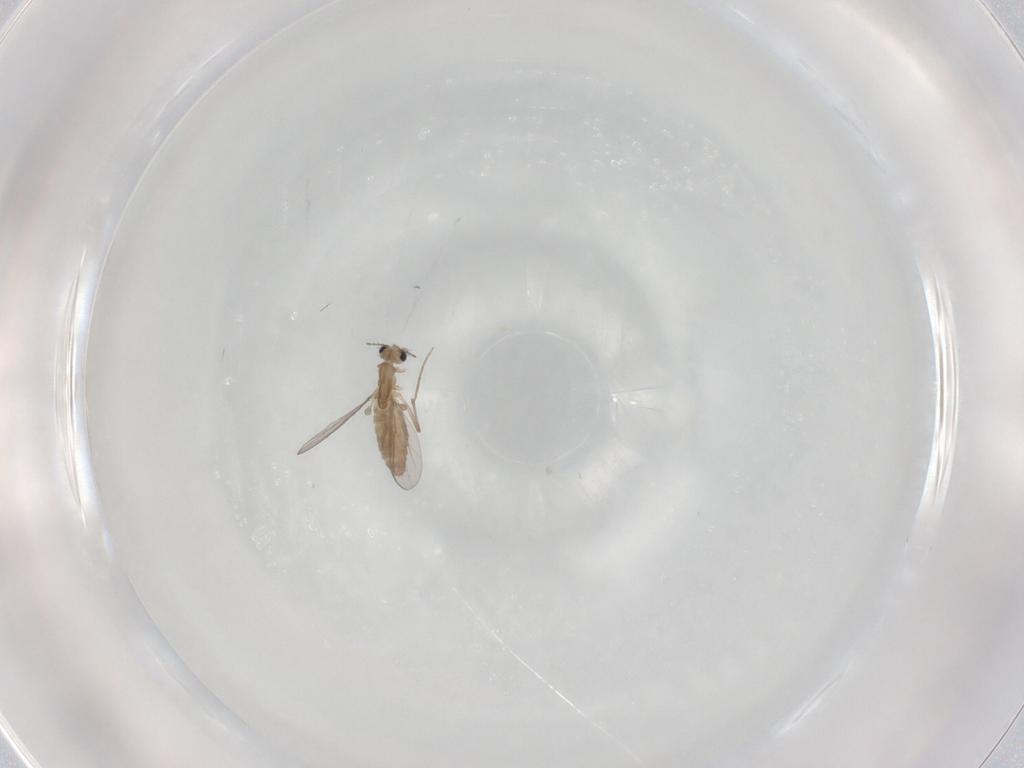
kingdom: Animalia
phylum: Arthropoda
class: Insecta
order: Diptera
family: Chironomidae
